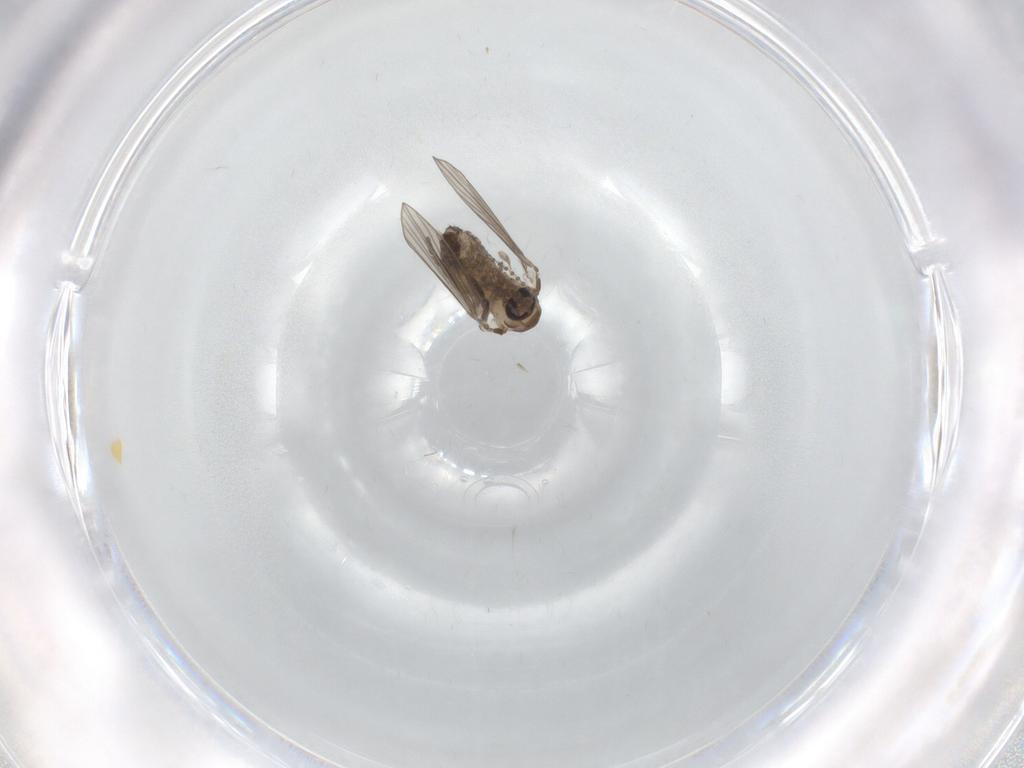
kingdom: Animalia
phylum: Arthropoda
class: Insecta
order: Diptera
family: Psychodidae
